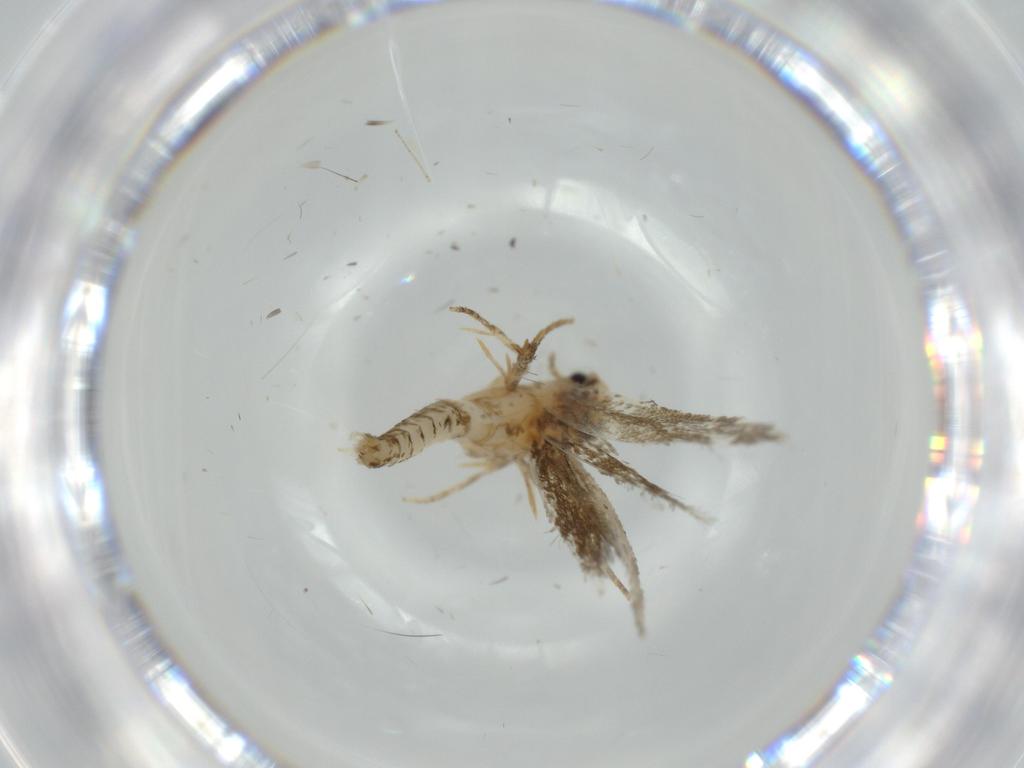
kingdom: Animalia
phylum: Arthropoda
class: Insecta
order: Lepidoptera
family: Tineidae
